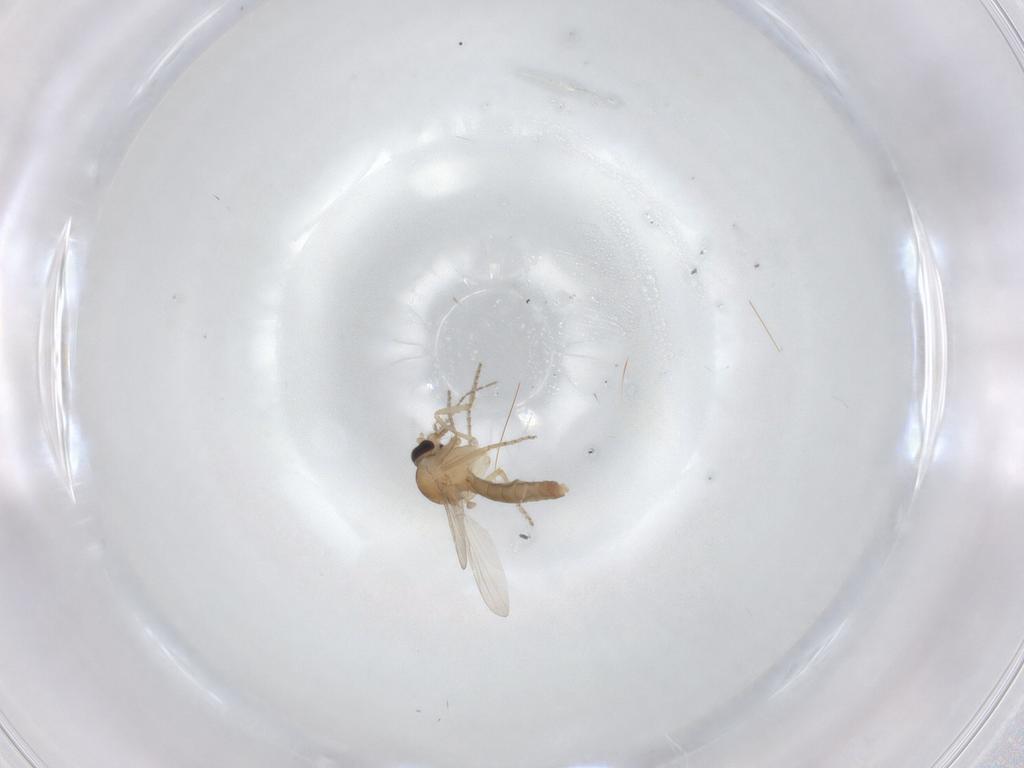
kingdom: Animalia
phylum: Arthropoda
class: Insecta
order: Diptera
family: Ceratopogonidae
